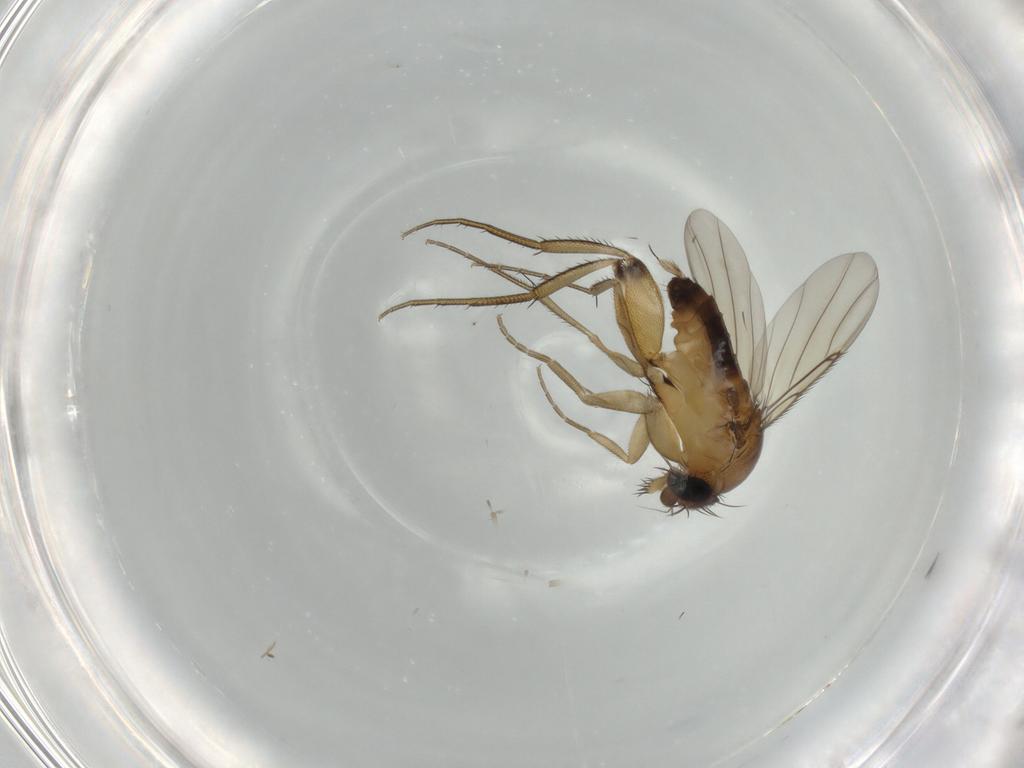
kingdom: Animalia
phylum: Arthropoda
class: Insecta
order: Diptera
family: Phoridae
